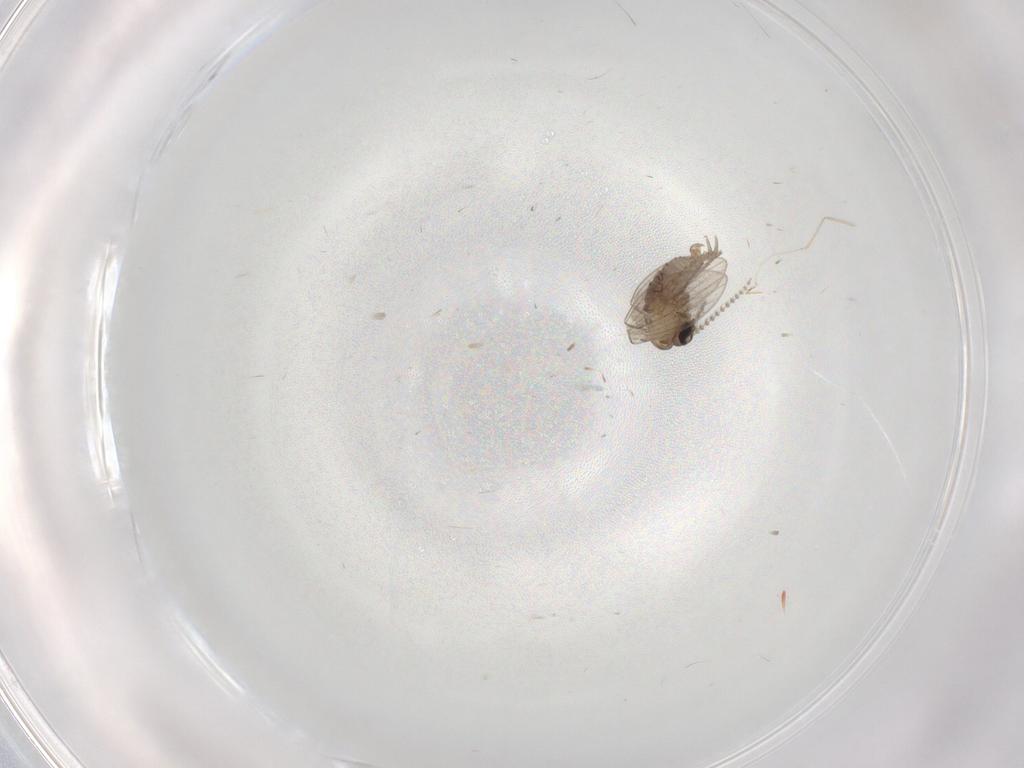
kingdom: Animalia
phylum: Arthropoda
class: Insecta
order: Diptera
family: Psychodidae
